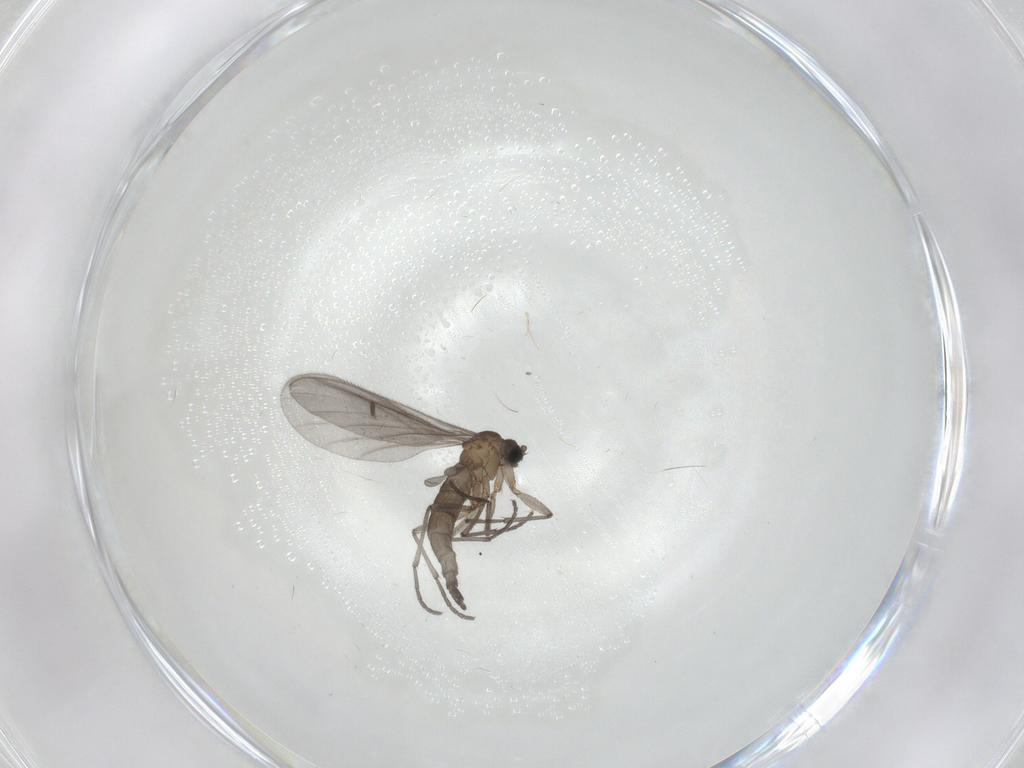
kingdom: Animalia
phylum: Arthropoda
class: Insecta
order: Diptera
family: Sciaridae
